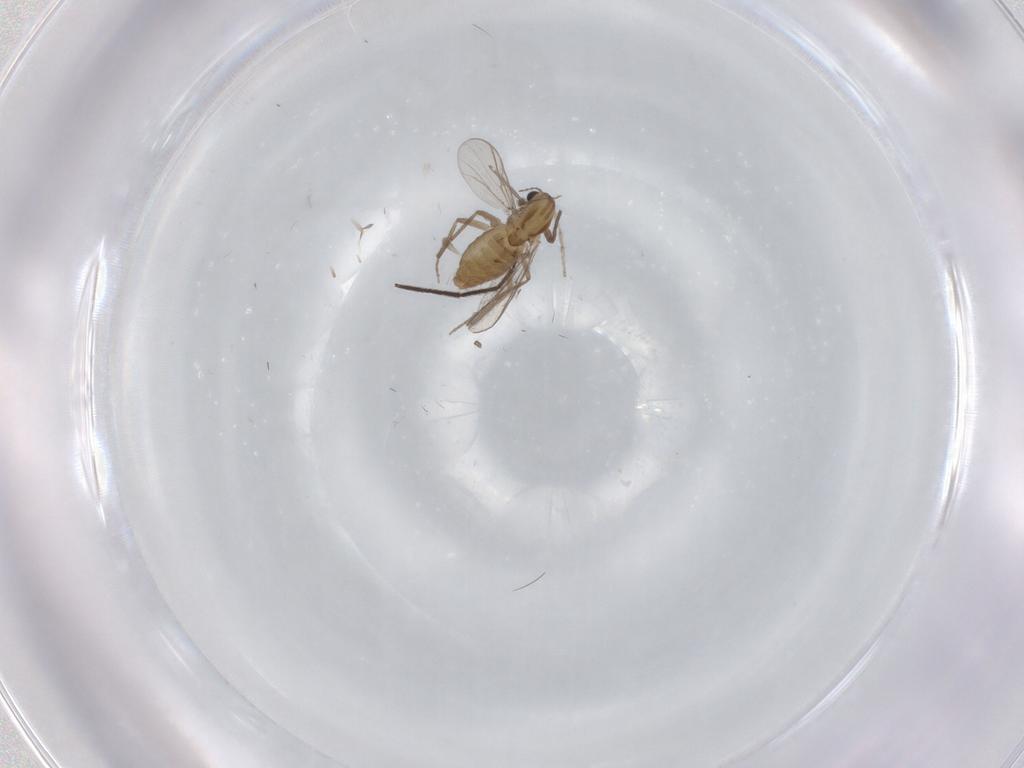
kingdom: Animalia
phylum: Arthropoda
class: Insecta
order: Diptera
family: Chironomidae
